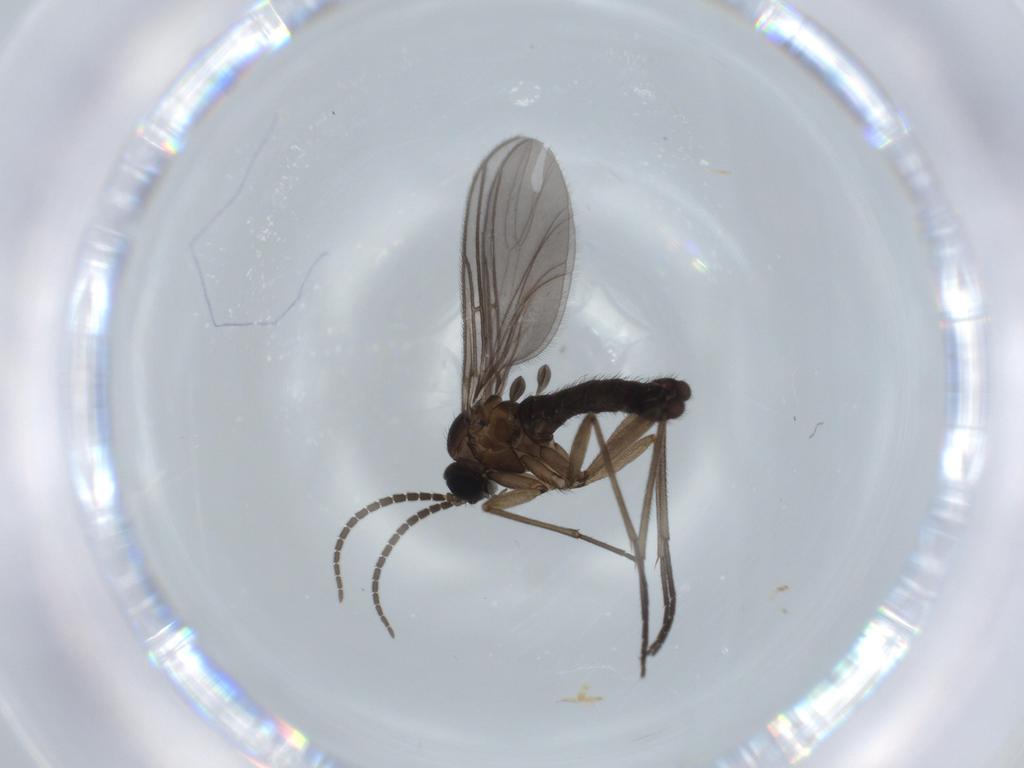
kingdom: Animalia
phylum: Arthropoda
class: Insecta
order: Diptera
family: Sciaridae
